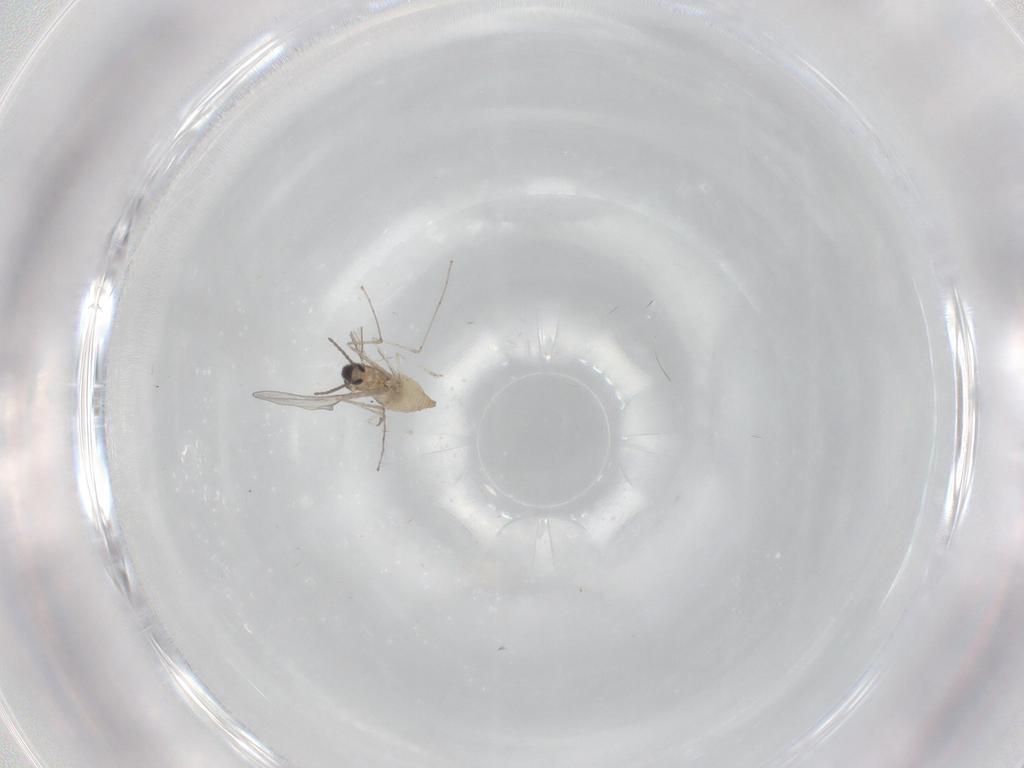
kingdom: Animalia
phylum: Arthropoda
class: Insecta
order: Diptera
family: Cecidomyiidae
